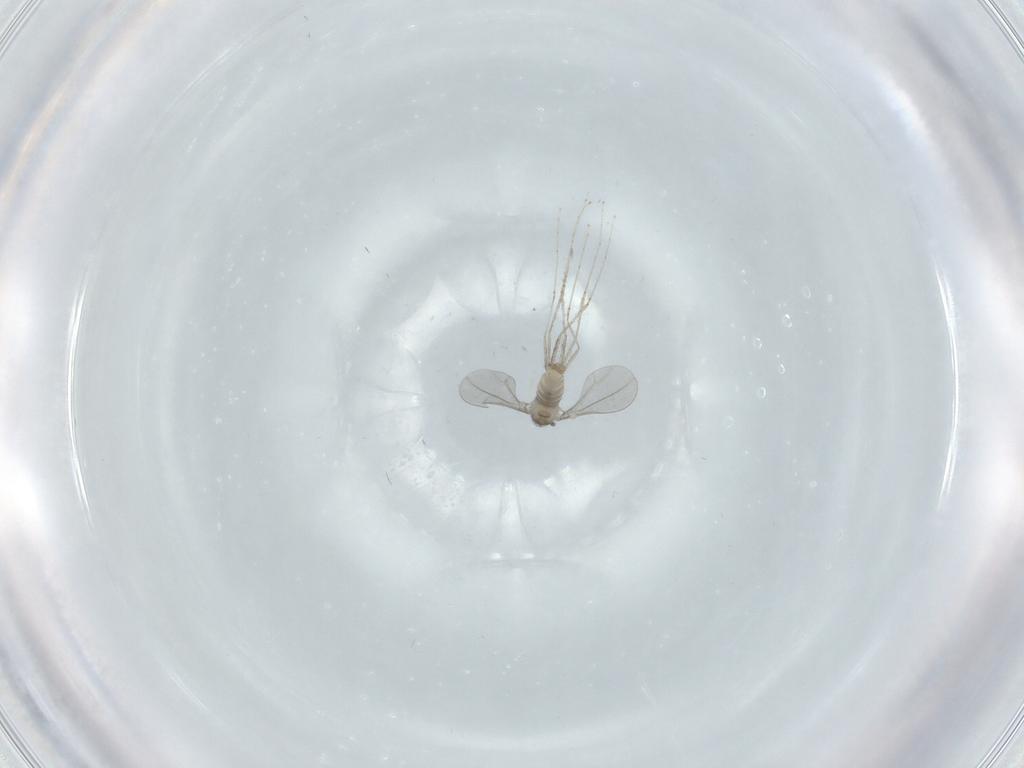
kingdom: Animalia
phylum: Arthropoda
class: Insecta
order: Diptera
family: Cecidomyiidae
